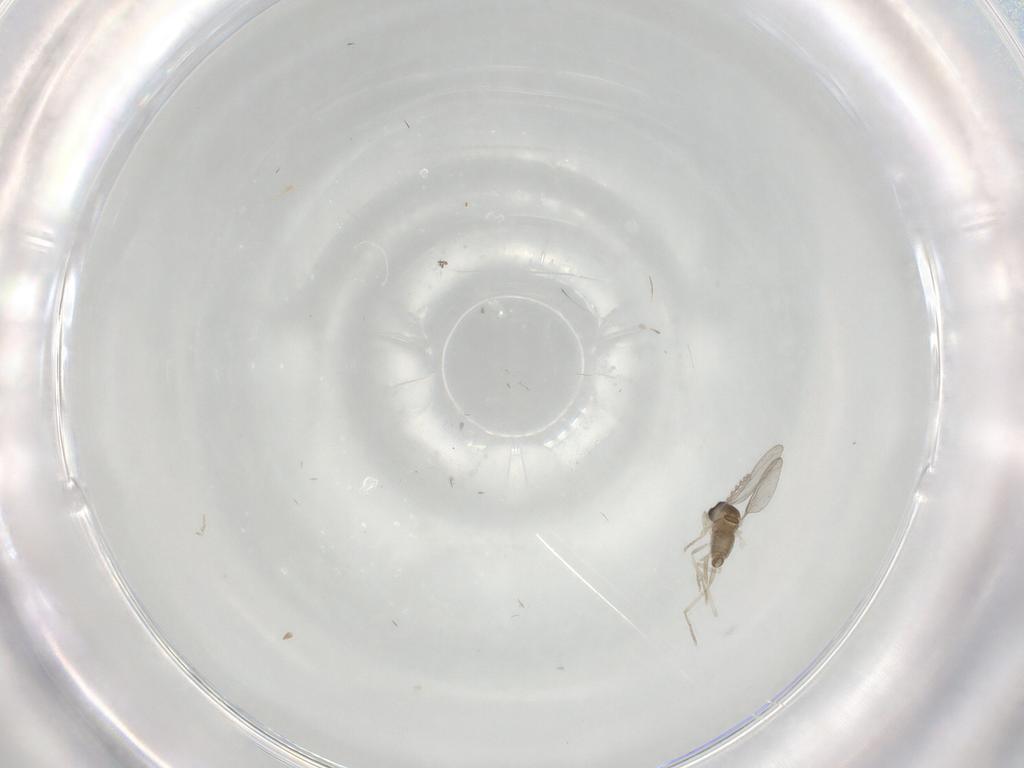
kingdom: Animalia
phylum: Arthropoda
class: Insecta
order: Diptera
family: Cecidomyiidae
